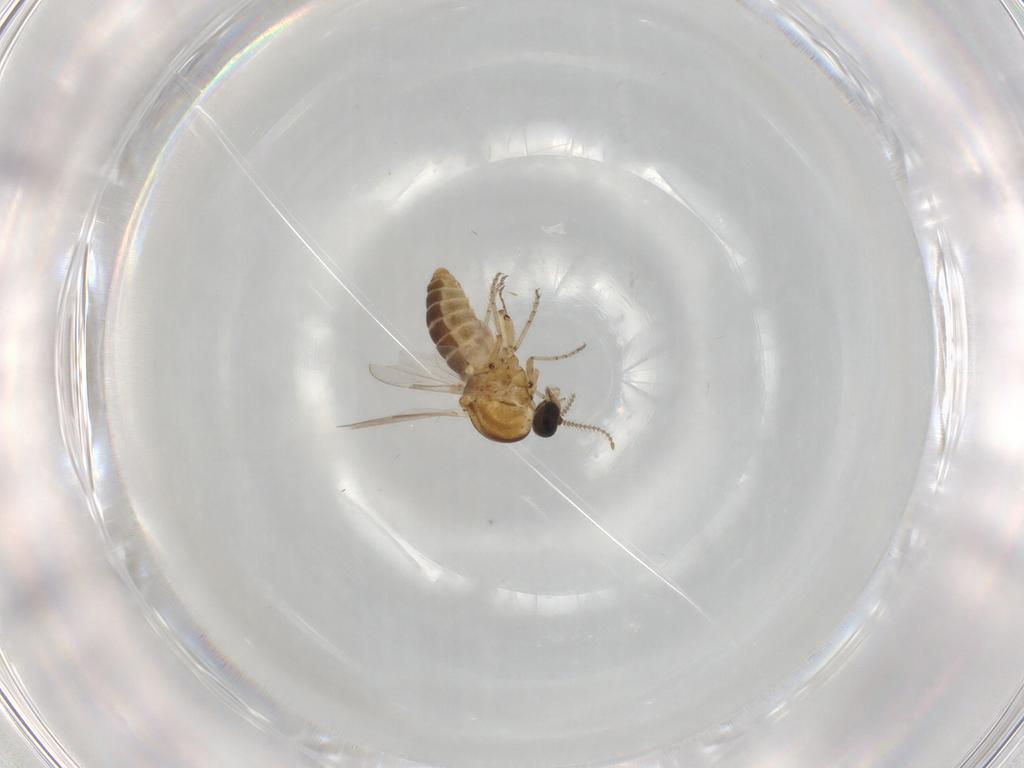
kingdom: Animalia
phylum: Arthropoda
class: Insecta
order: Diptera
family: Ceratopogonidae
